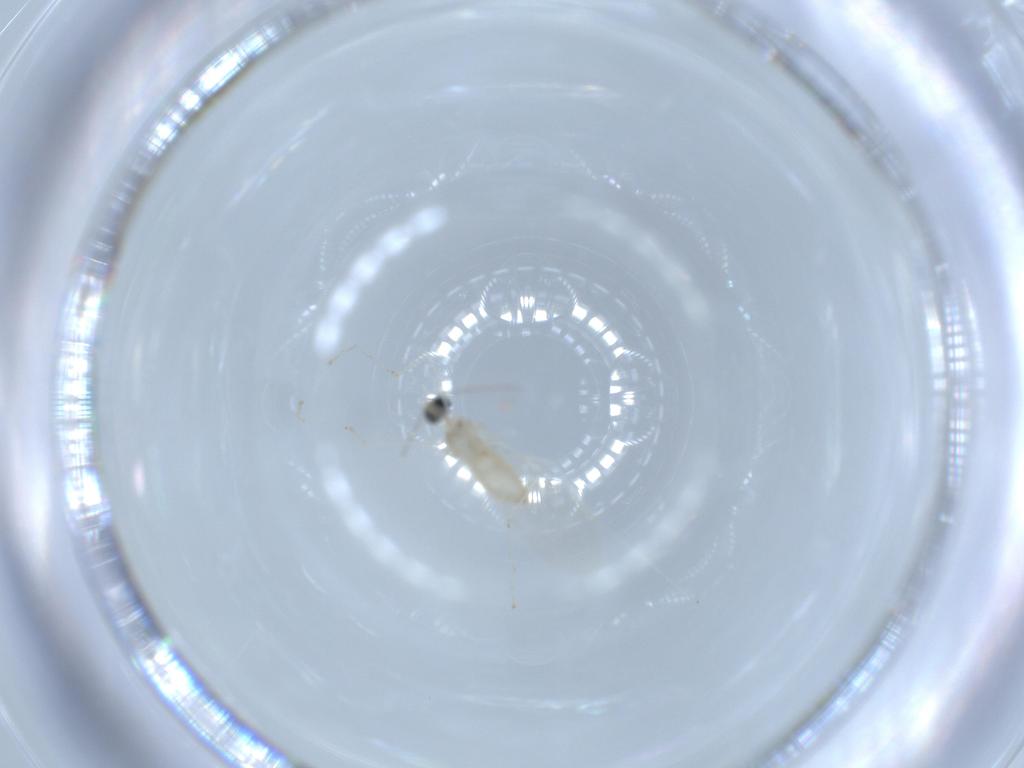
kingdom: Animalia
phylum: Arthropoda
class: Insecta
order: Diptera
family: Cecidomyiidae
